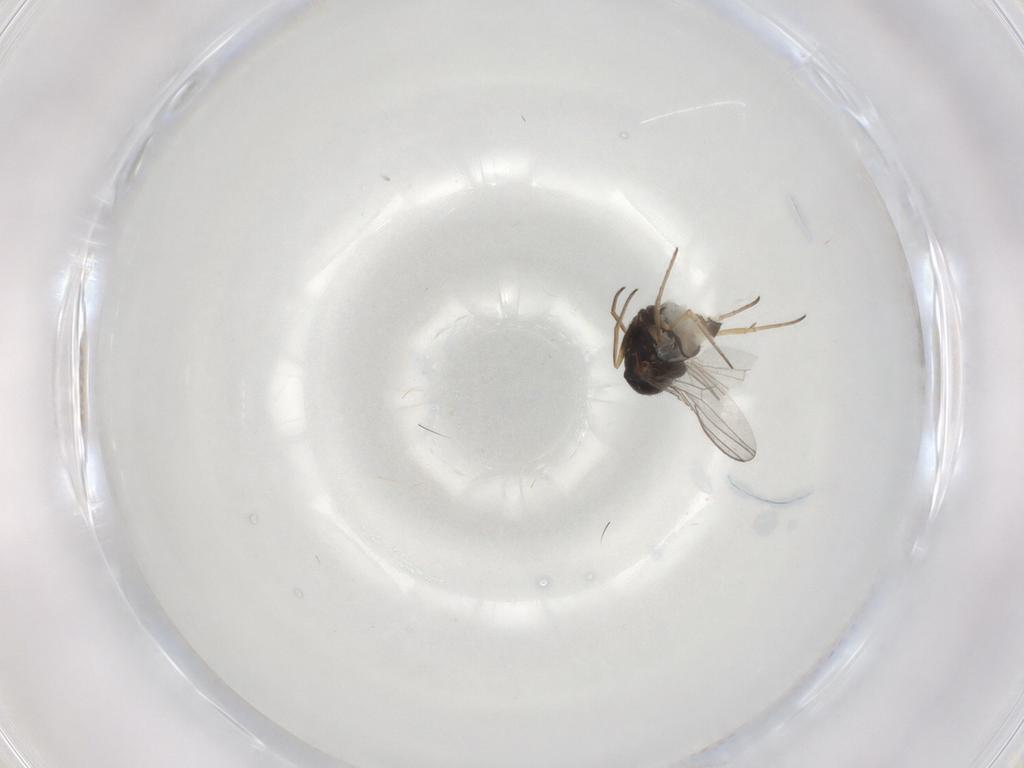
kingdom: Animalia
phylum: Arthropoda
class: Insecta
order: Diptera
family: Dolichopodidae
